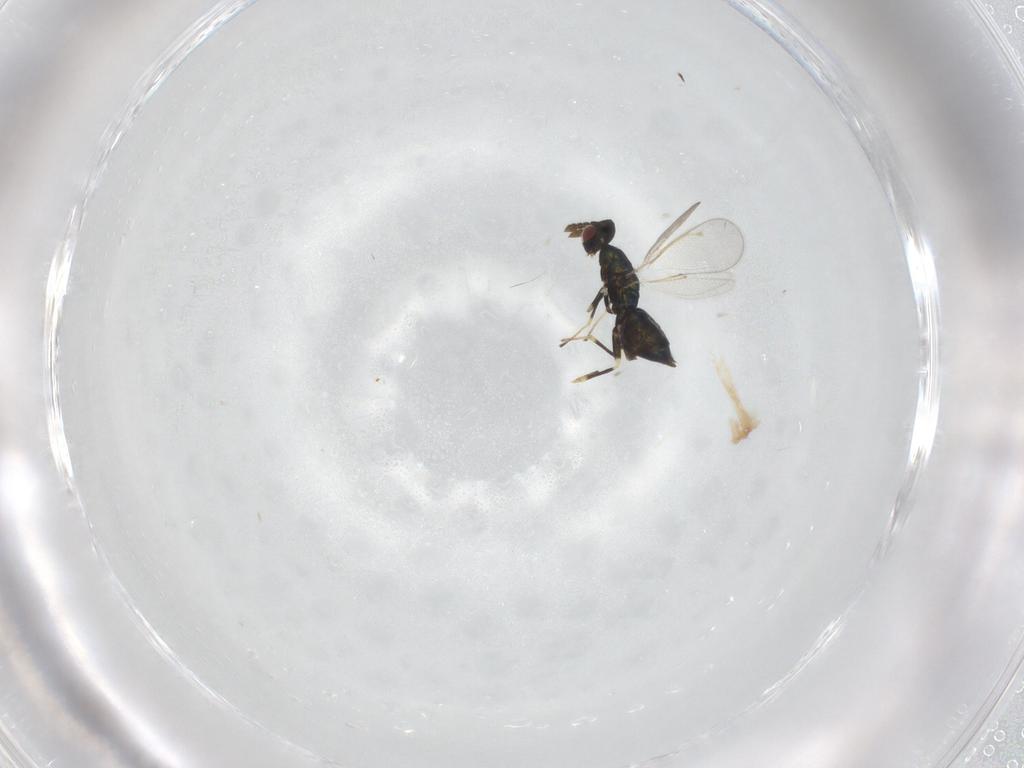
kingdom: Animalia
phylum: Arthropoda
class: Insecta
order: Hymenoptera
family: Eulophidae
